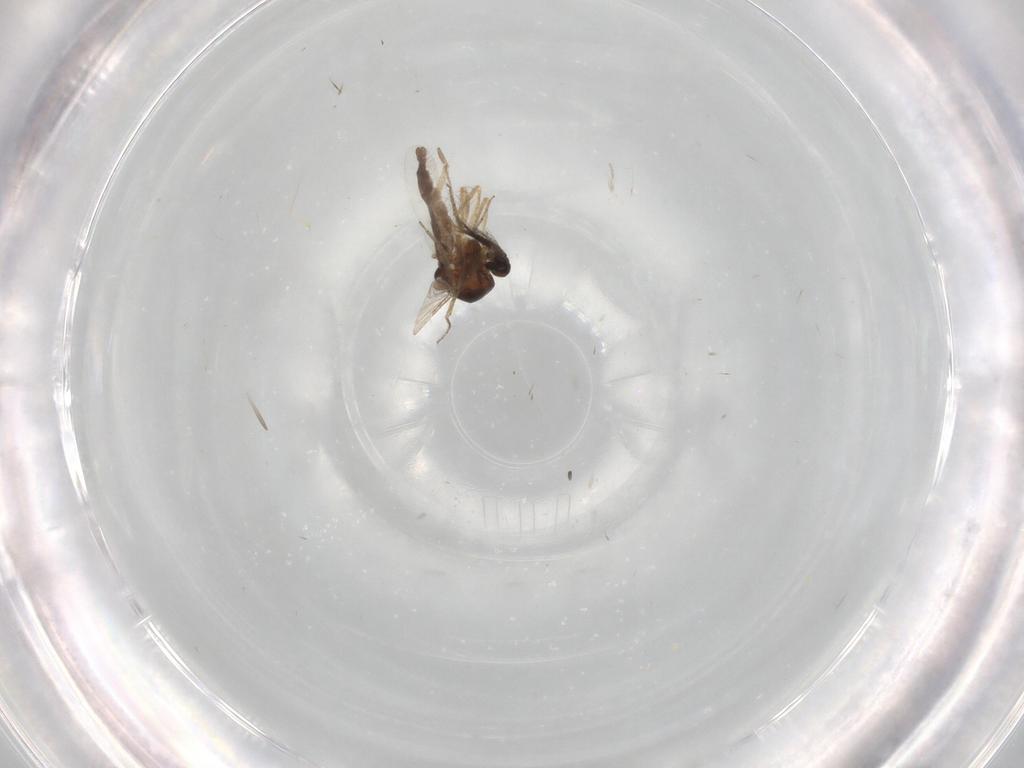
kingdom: Animalia
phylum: Arthropoda
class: Insecta
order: Diptera
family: Ceratopogonidae
